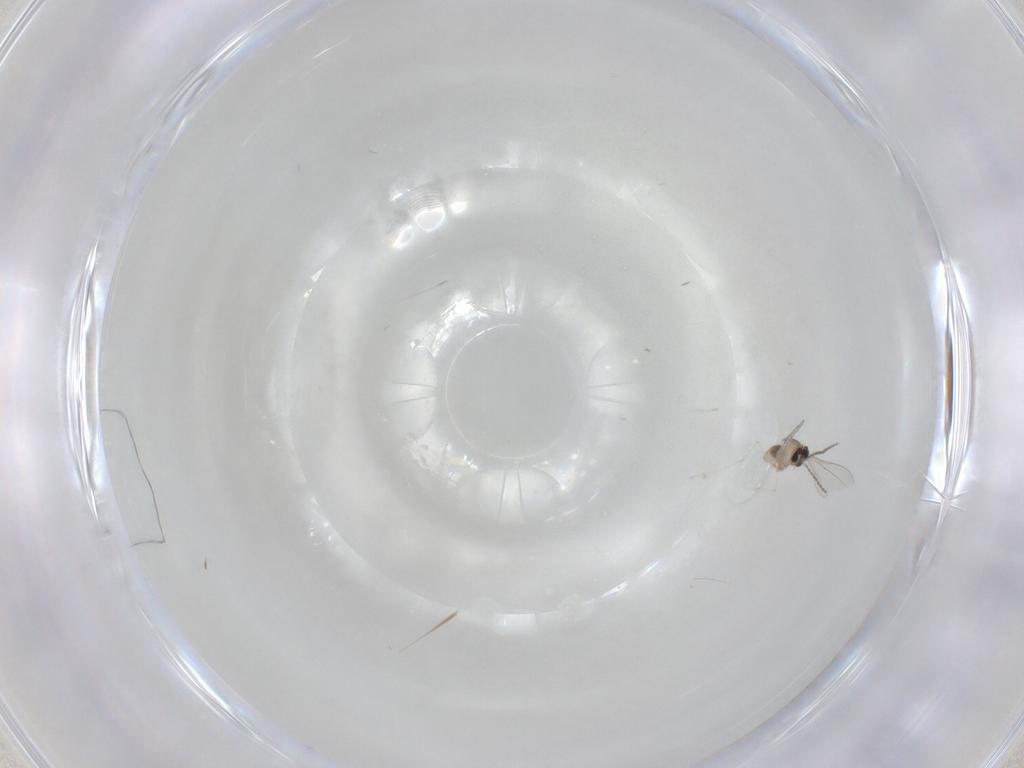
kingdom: Animalia
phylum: Arthropoda
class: Insecta
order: Diptera
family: Cecidomyiidae
